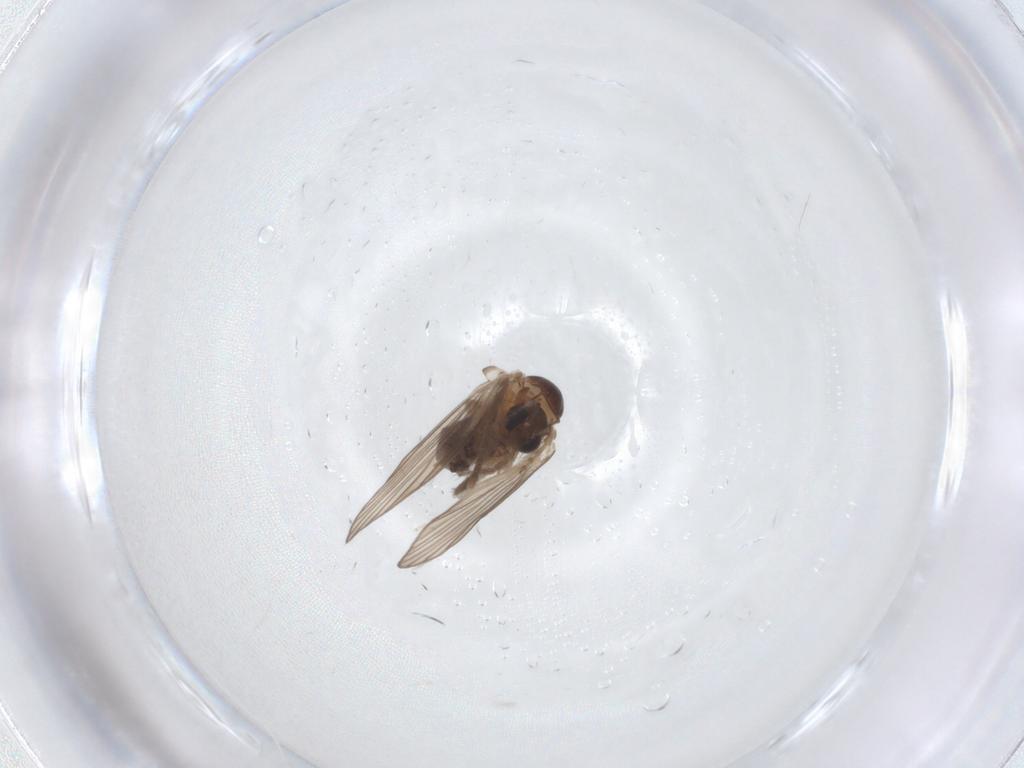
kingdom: Animalia
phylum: Arthropoda
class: Insecta
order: Diptera
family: Psychodidae
